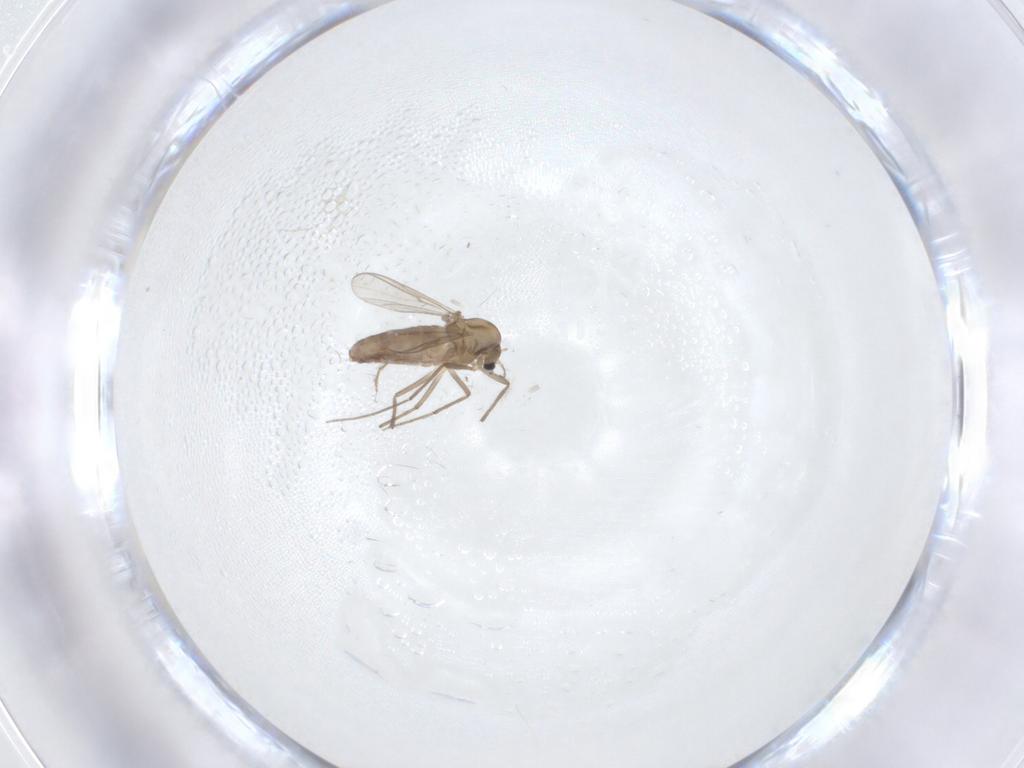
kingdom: Animalia
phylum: Arthropoda
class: Insecta
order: Diptera
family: Chironomidae
